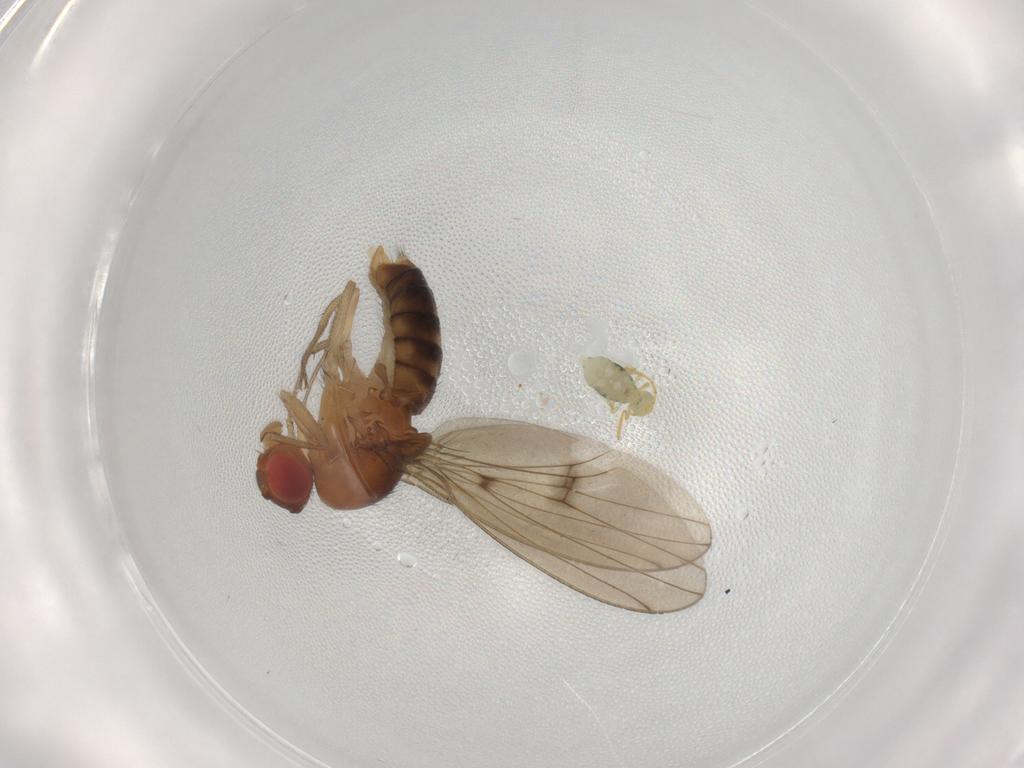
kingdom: Animalia
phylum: Arthropoda
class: Insecta
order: Diptera
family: Drosophilidae
